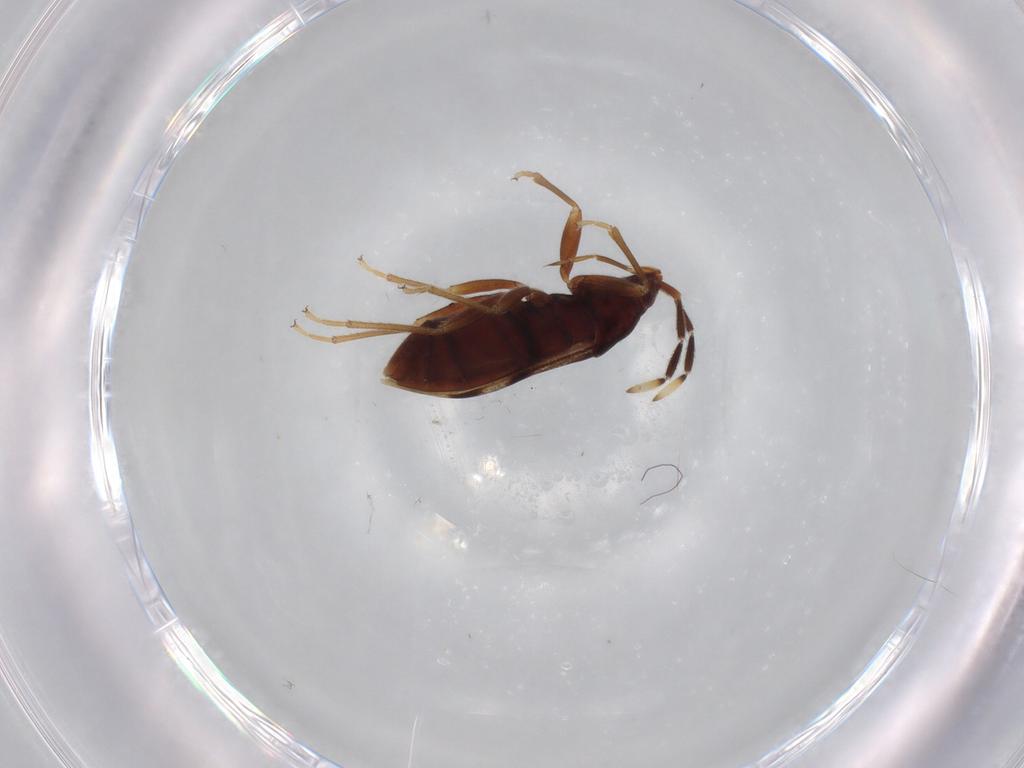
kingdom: Animalia
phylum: Arthropoda
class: Insecta
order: Hemiptera
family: Rhyparochromidae
